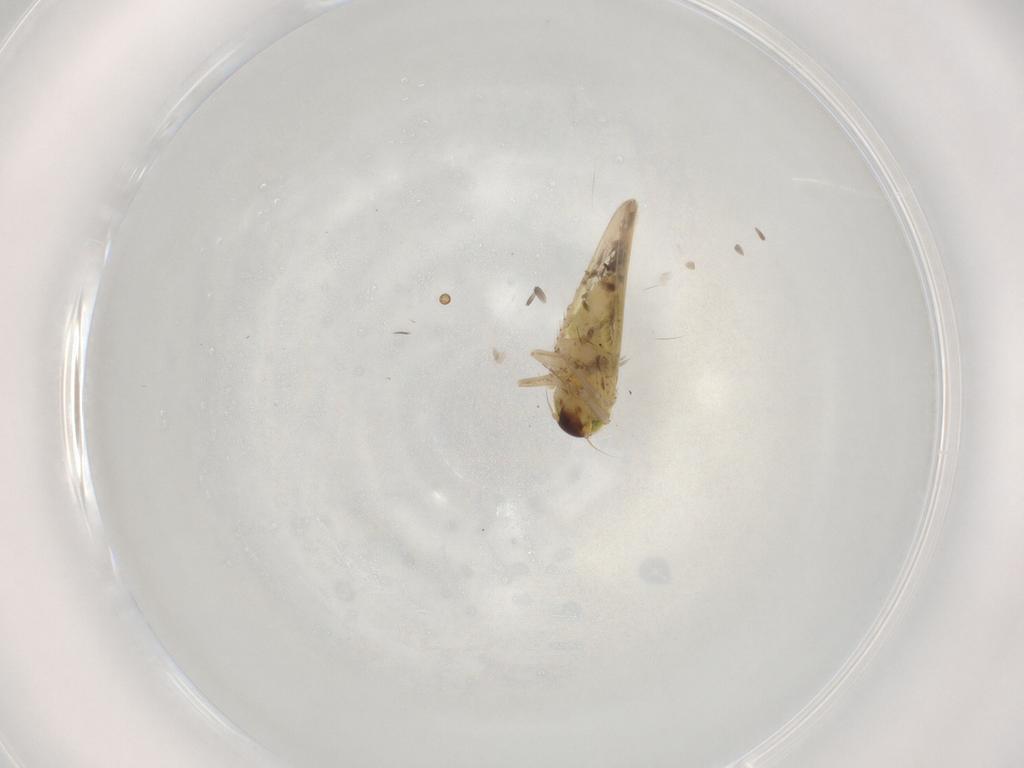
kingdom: Animalia
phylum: Arthropoda
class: Insecta
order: Hemiptera
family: Cicadellidae
